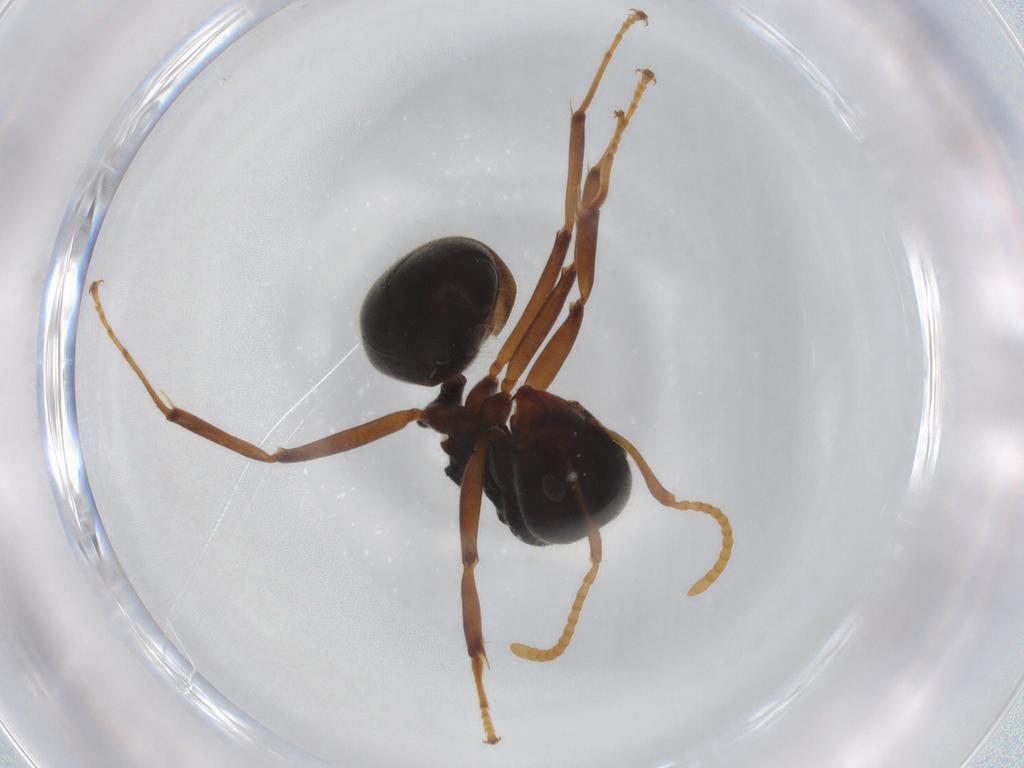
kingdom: Animalia
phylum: Arthropoda
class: Insecta
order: Hymenoptera
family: Formicidae
